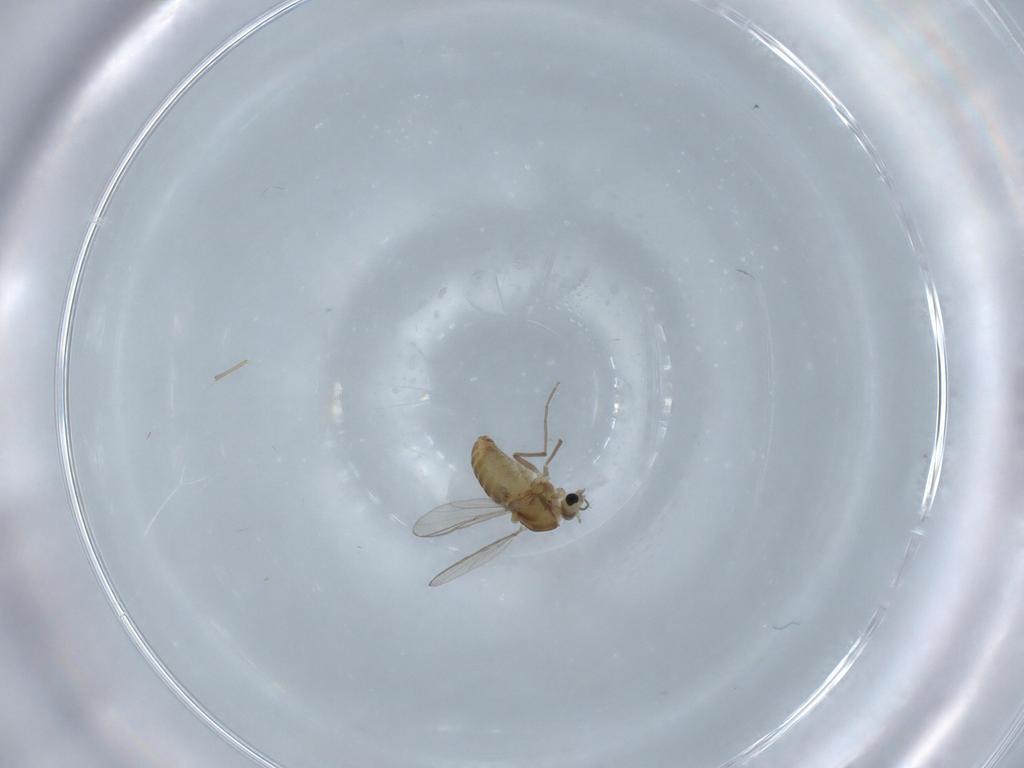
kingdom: Animalia
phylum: Arthropoda
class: Insecta
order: Diptera
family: Phoridae
